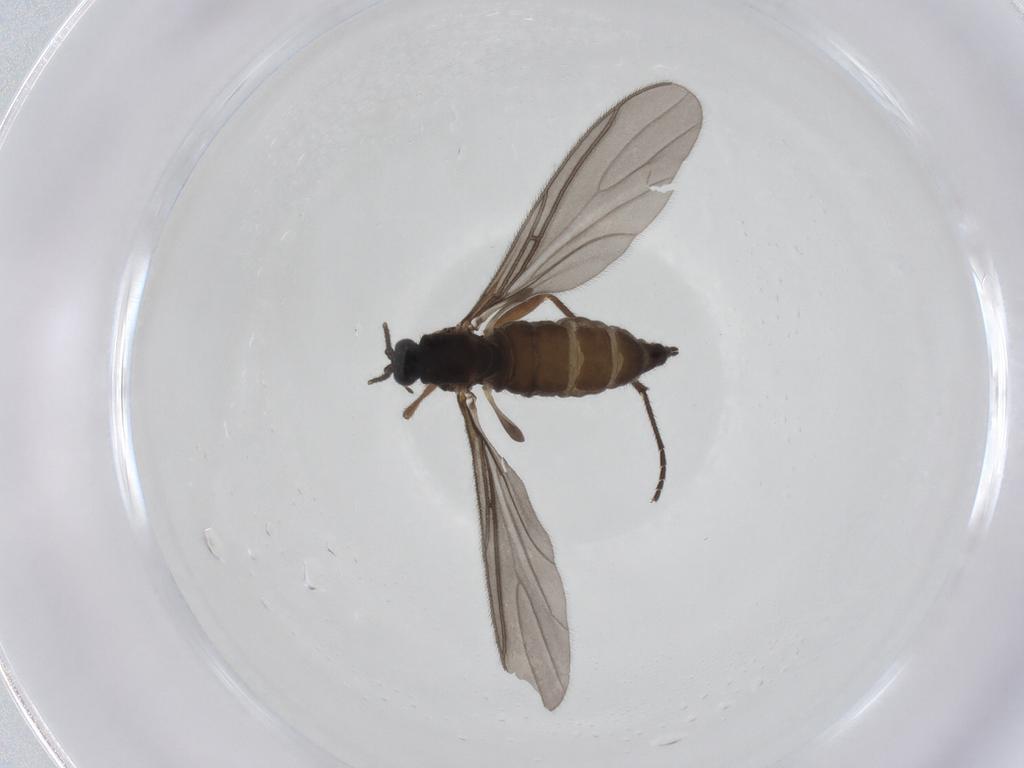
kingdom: Animalia
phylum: Arthropoda
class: Insecta
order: Diptera
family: Sciaridae
